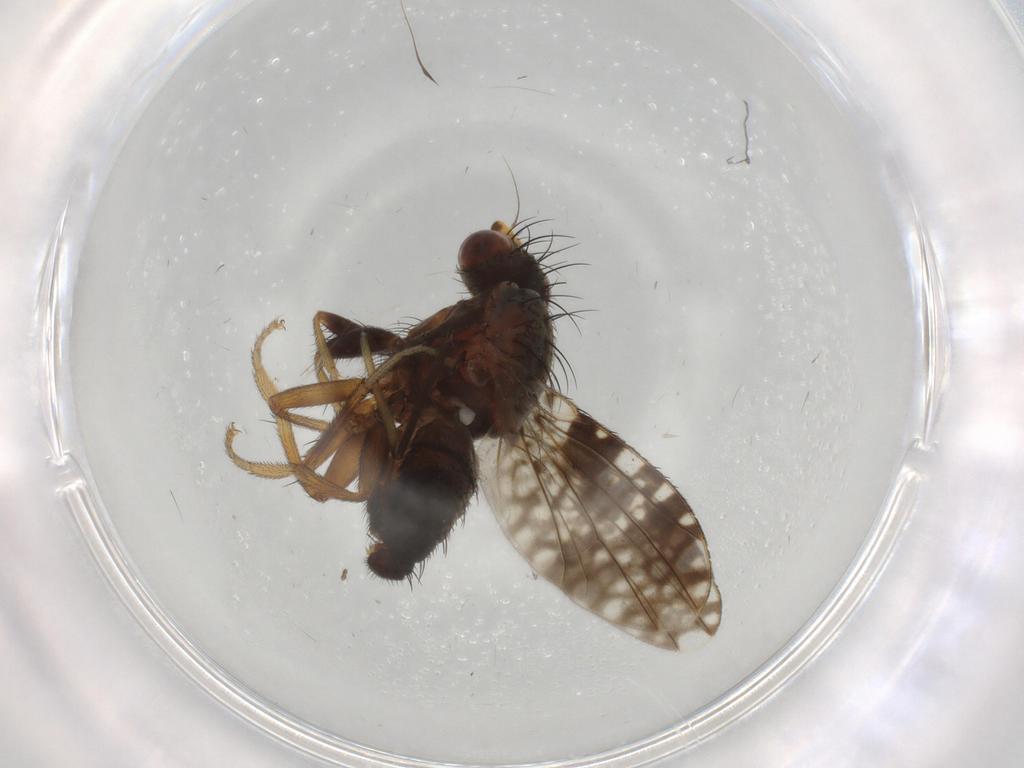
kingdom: Animalia
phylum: Arthropoda
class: Insecta
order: Diptera
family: Tephritidae
